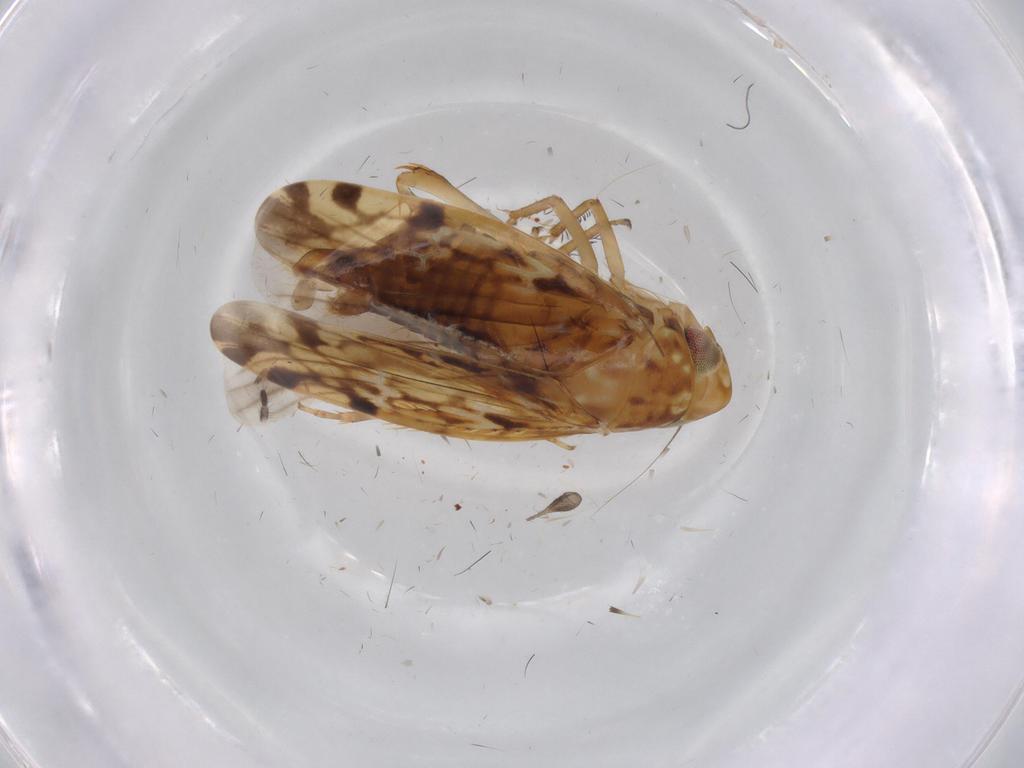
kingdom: Animalia
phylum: Arthropoda
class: Insecta
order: Hemiptera
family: Cicadellidae
